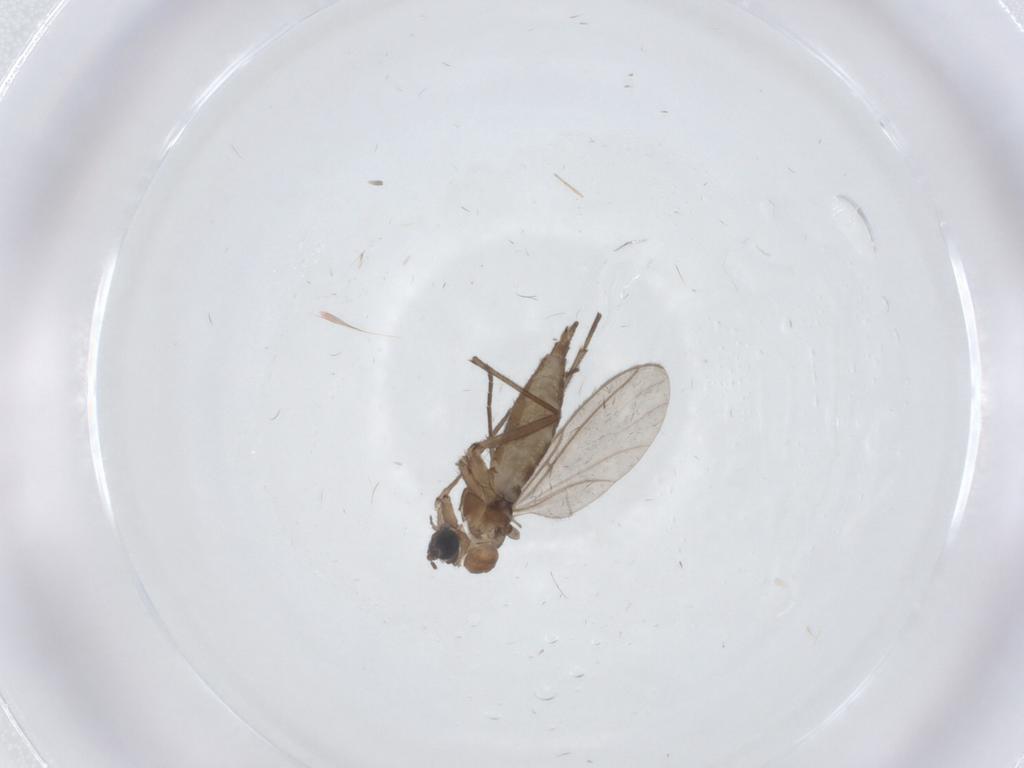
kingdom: Animalia
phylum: Arthropoda
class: Insecta
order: Diptera
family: Sciaridae
